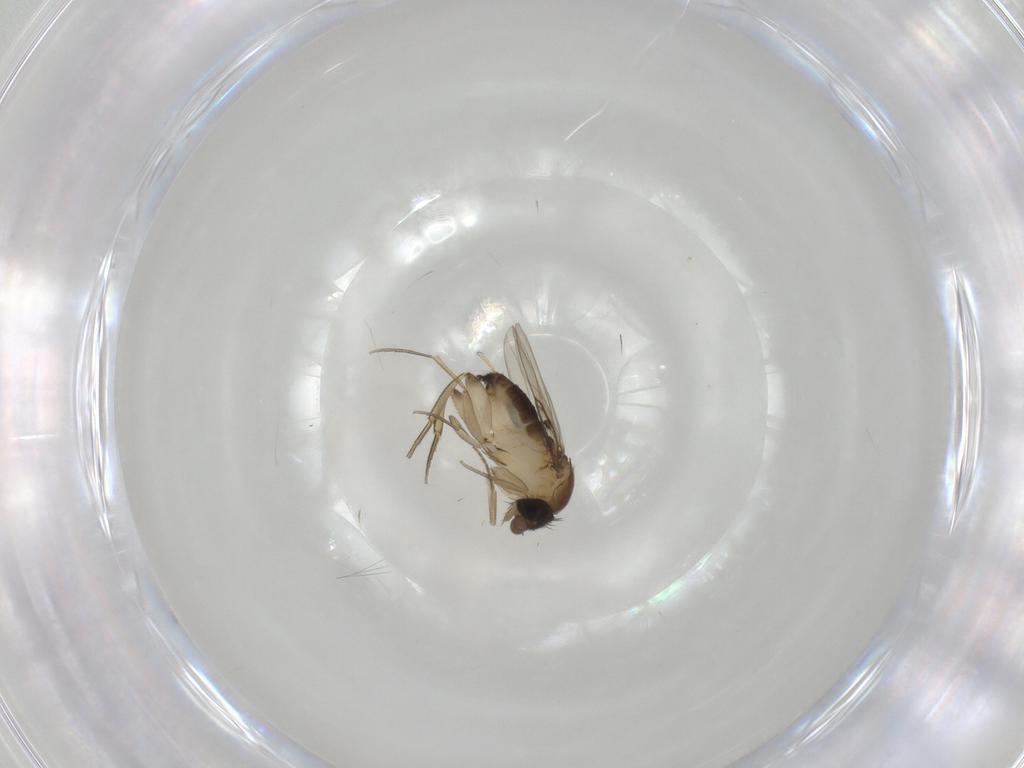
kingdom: Animalia
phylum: Arthropoda
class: Insecta
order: Diptera
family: Phoridae
